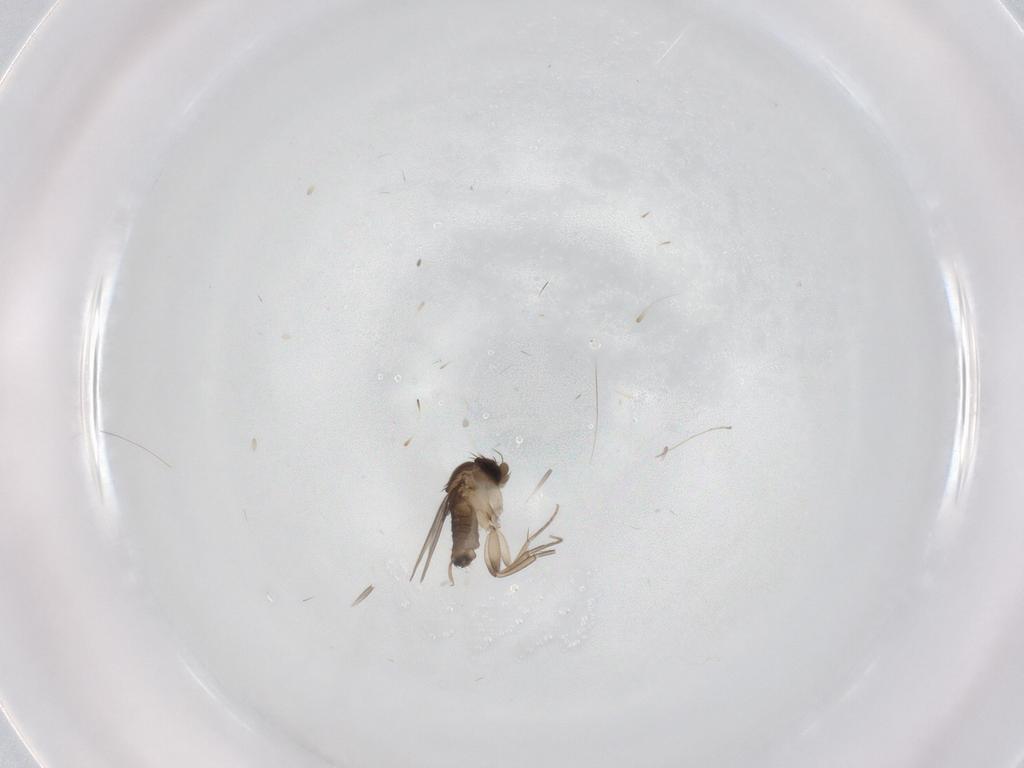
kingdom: Animalia
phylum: Arthropoda
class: Insecta
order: Diptera
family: Phoridae
